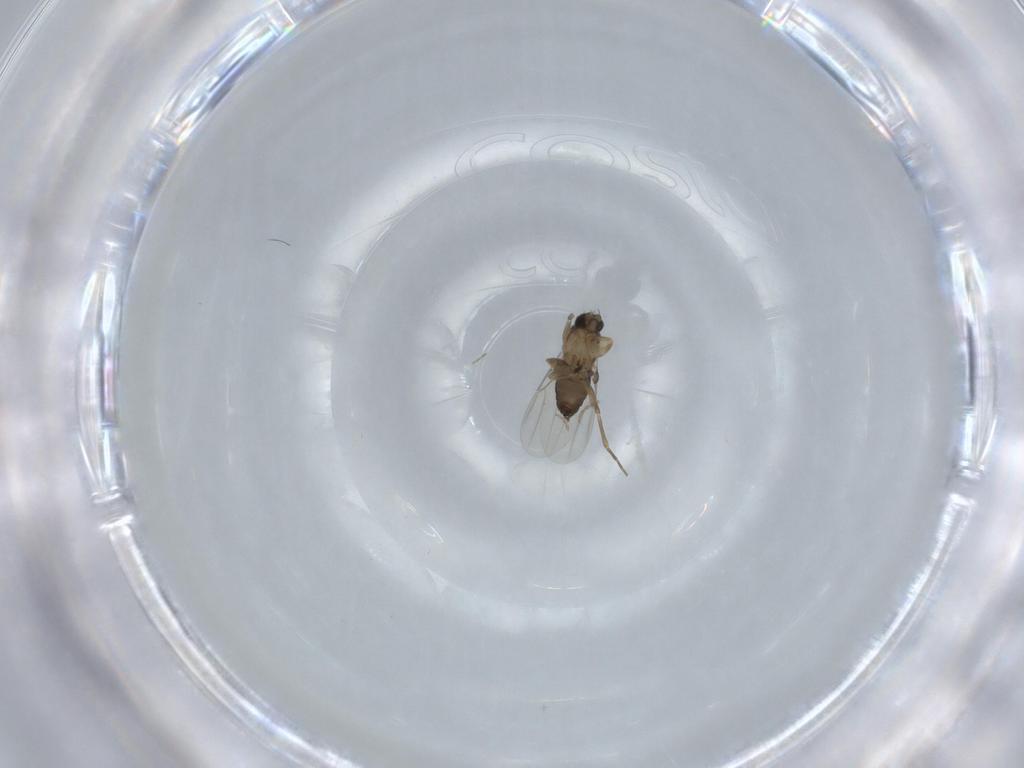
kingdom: Animalia
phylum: Arthropoda
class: Insecta
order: Diptera
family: Phoridae
